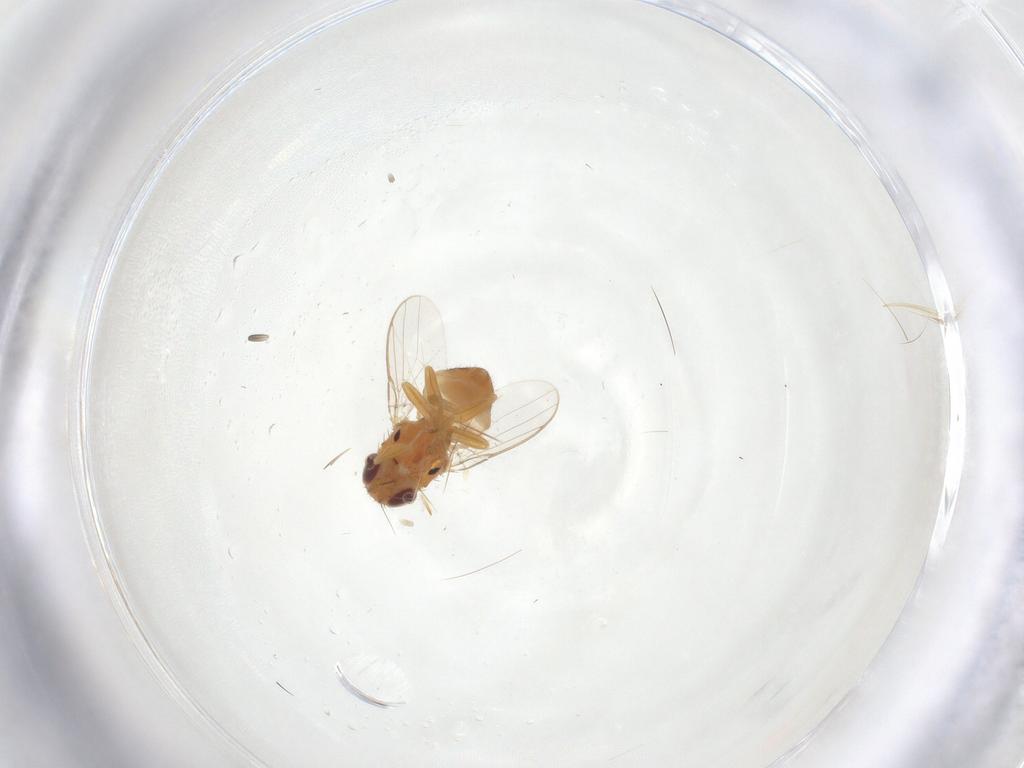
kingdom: Animalia
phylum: Arthropoda
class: Insecta
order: Diptera
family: Chloropidae
